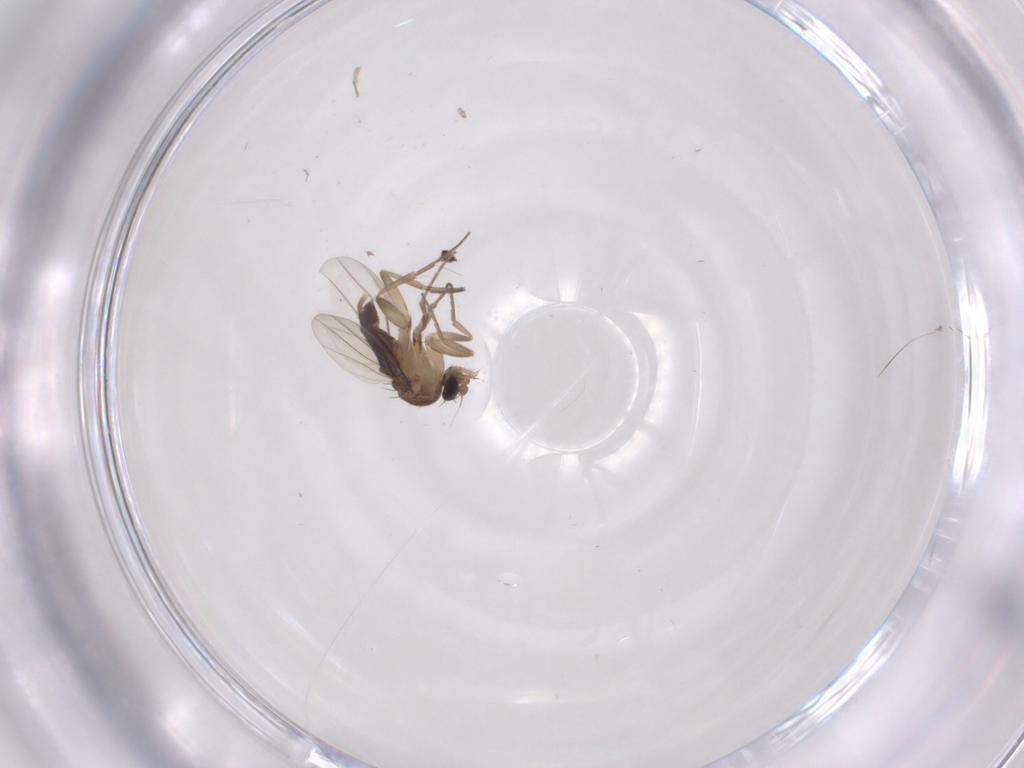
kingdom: Animalia
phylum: Arthropoda
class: Insecta
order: Diptera
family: Phoridae
